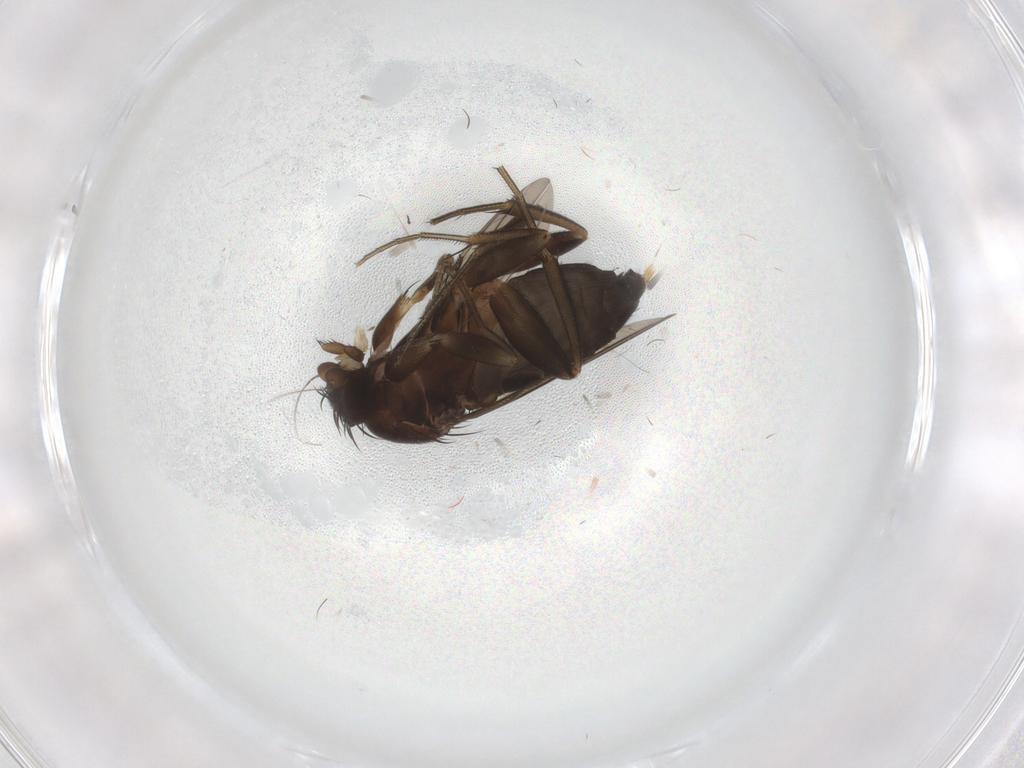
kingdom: Animalia
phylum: Arthropoda
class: Insecta
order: Diptera
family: Phoridae
